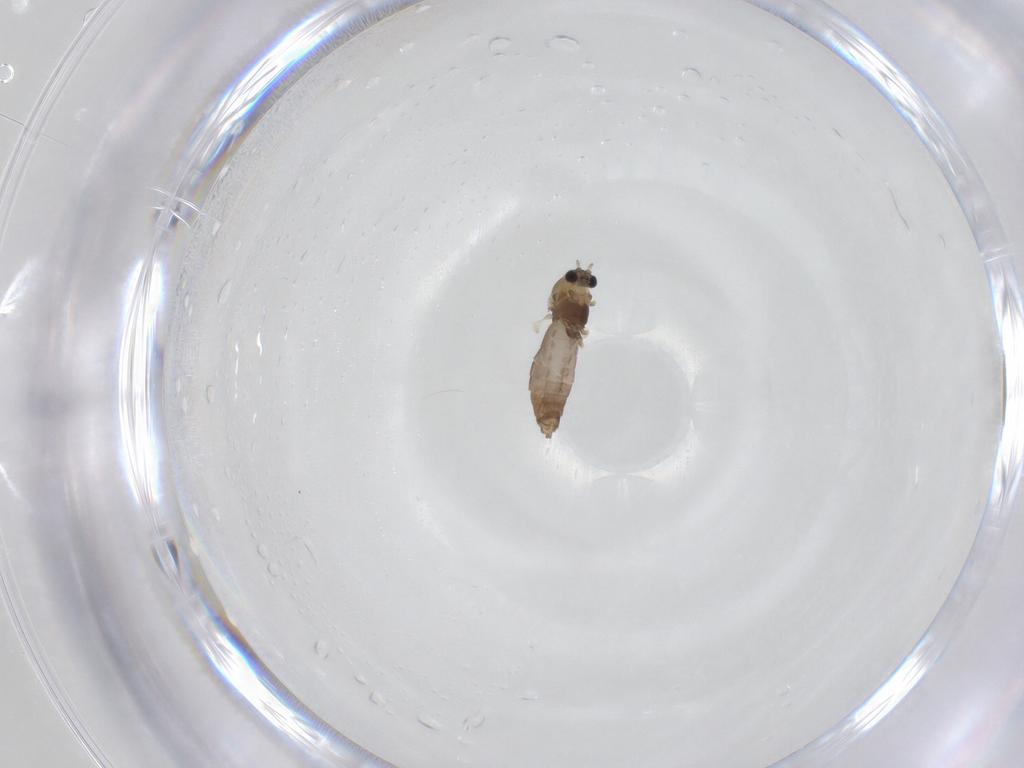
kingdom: Animalia
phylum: Arthropoda
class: Insecta
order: Diptera
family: Chironomidae
